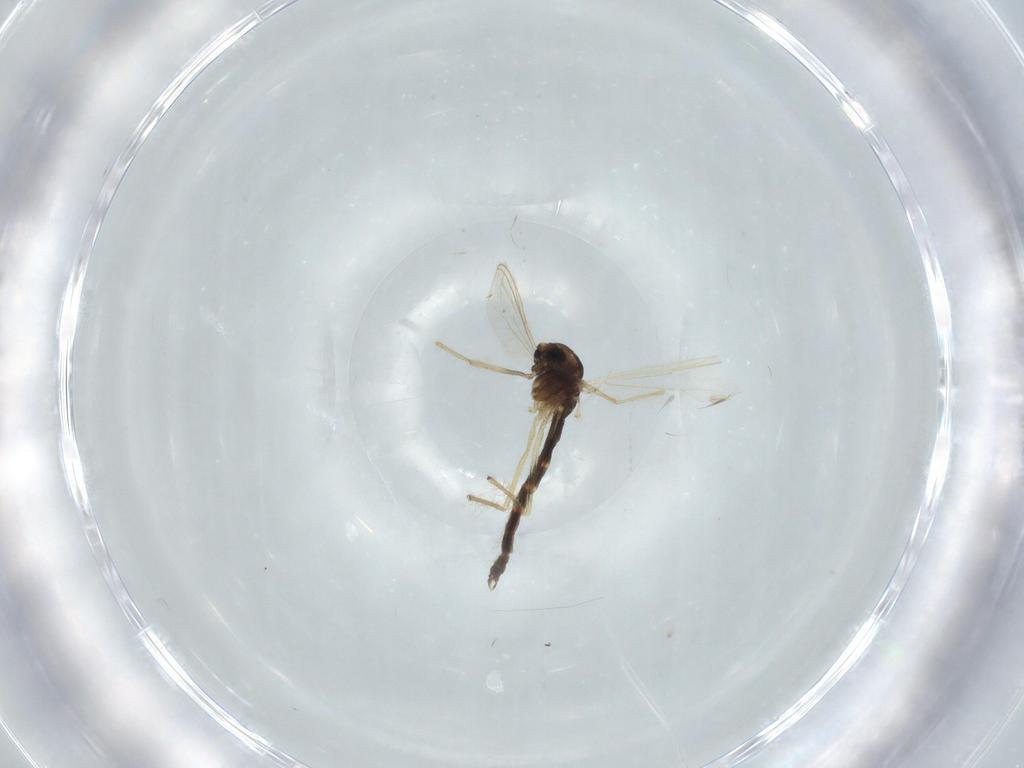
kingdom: Animalia
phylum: Arthropoda
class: Insecta
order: Diptera
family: Chironomidae
